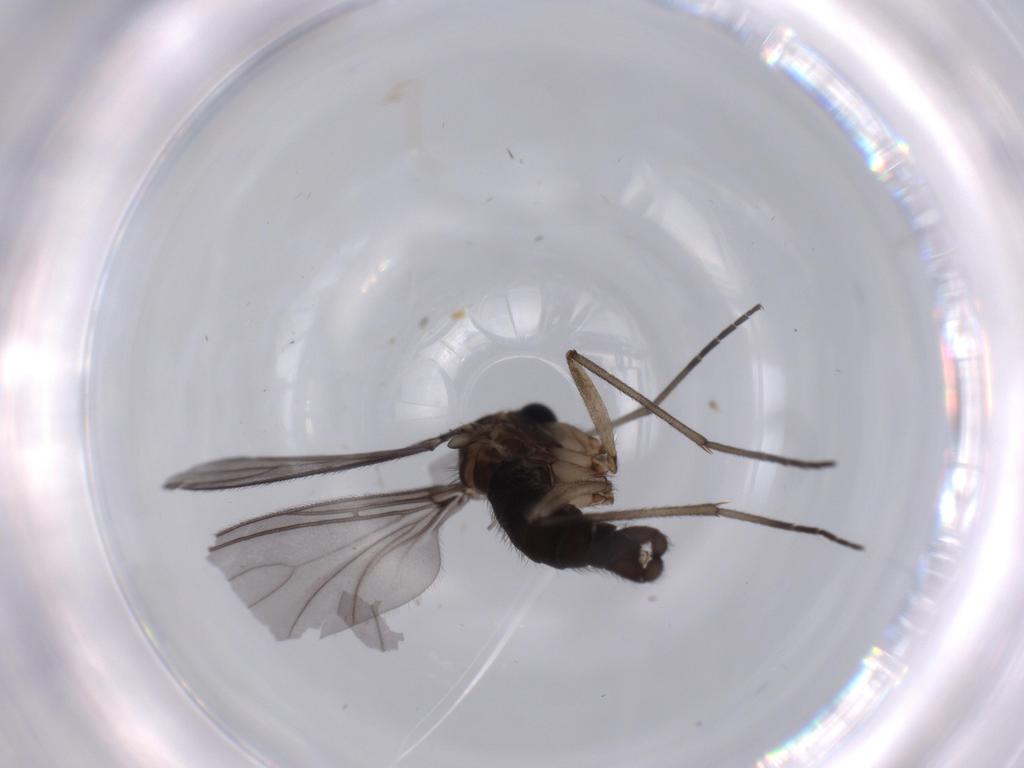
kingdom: Animalia
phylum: Arthropoda
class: Insecta
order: Diptera
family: Sciaridae
